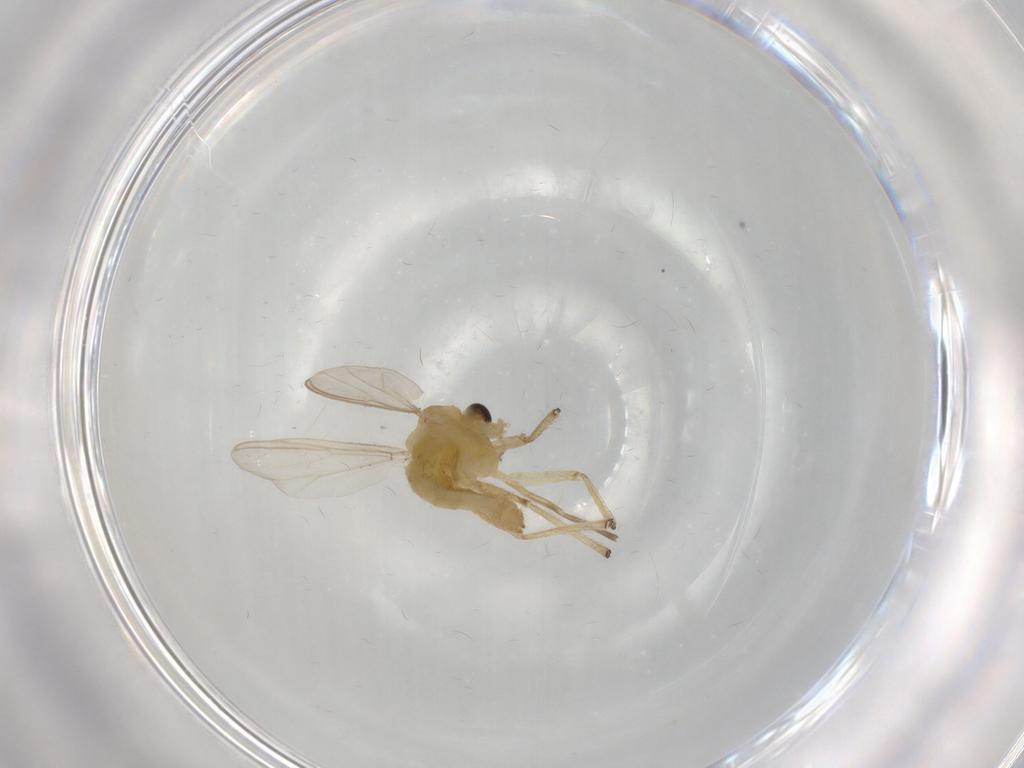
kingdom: Animalia
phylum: Arthropoda
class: Insecta
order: Diptera
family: Chironomidae
